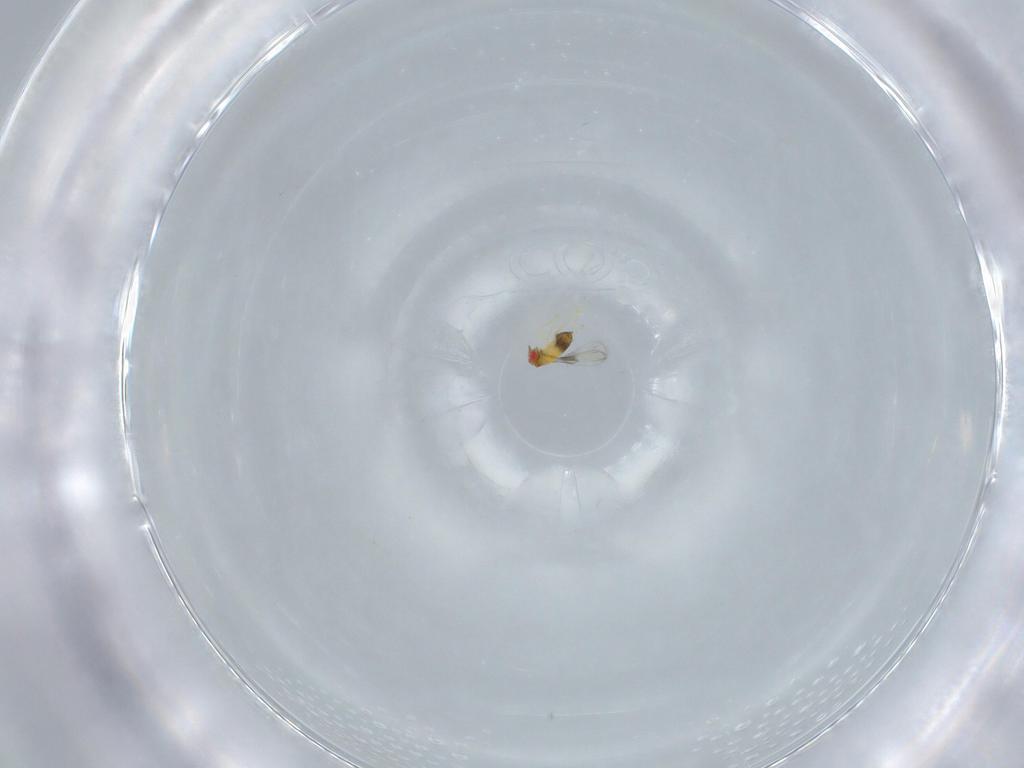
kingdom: Animalia
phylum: Arthropoda
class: Insecta
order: Hymenoptera
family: Trichogrammatidae
